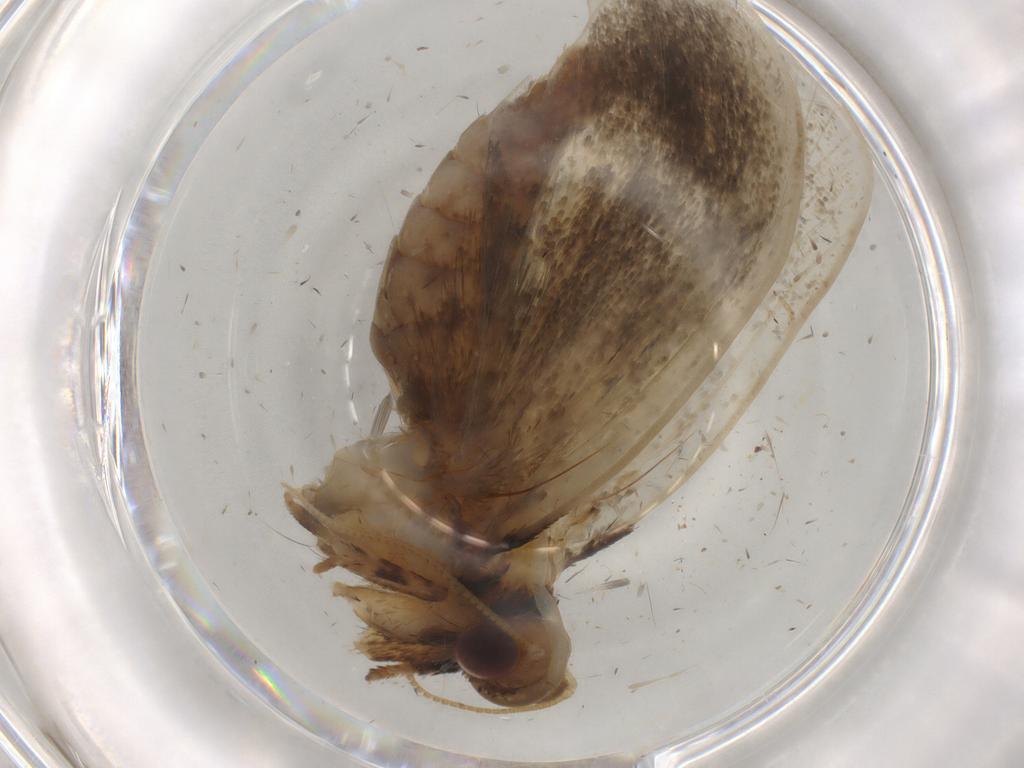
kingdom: Animalia
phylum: Arthropoda
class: Insecta
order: Lepidoptera
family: Tineidae
